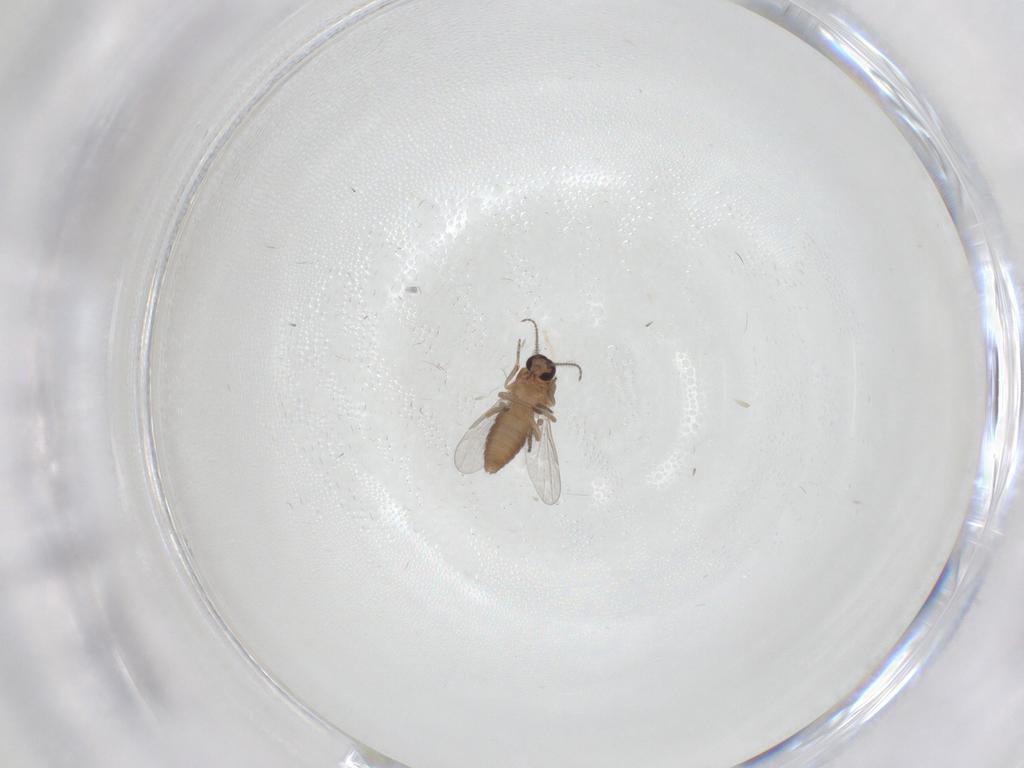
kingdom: Animalia
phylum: Arthropoda
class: Insecta
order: Diptera
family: Ceratopogonidae
